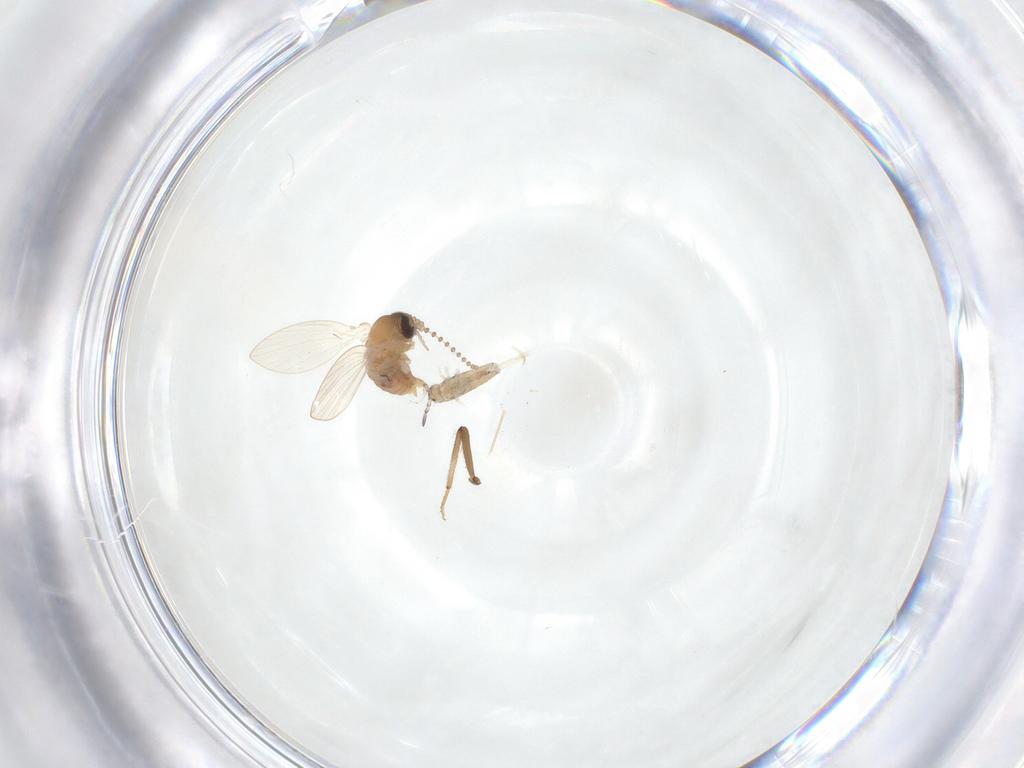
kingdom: Animalia
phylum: Arthropoda
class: Insecta
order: Diptera
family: Psychodidae
